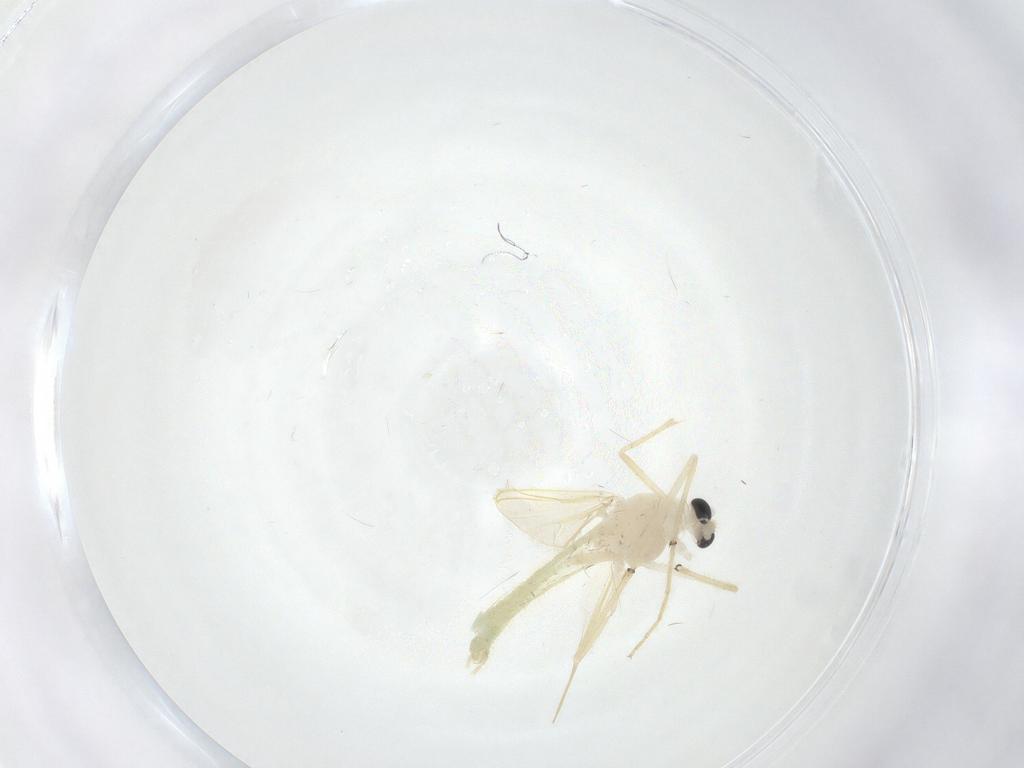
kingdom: Animalia
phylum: Arthropoda
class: Insecta
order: Diptera
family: Chironomidae
